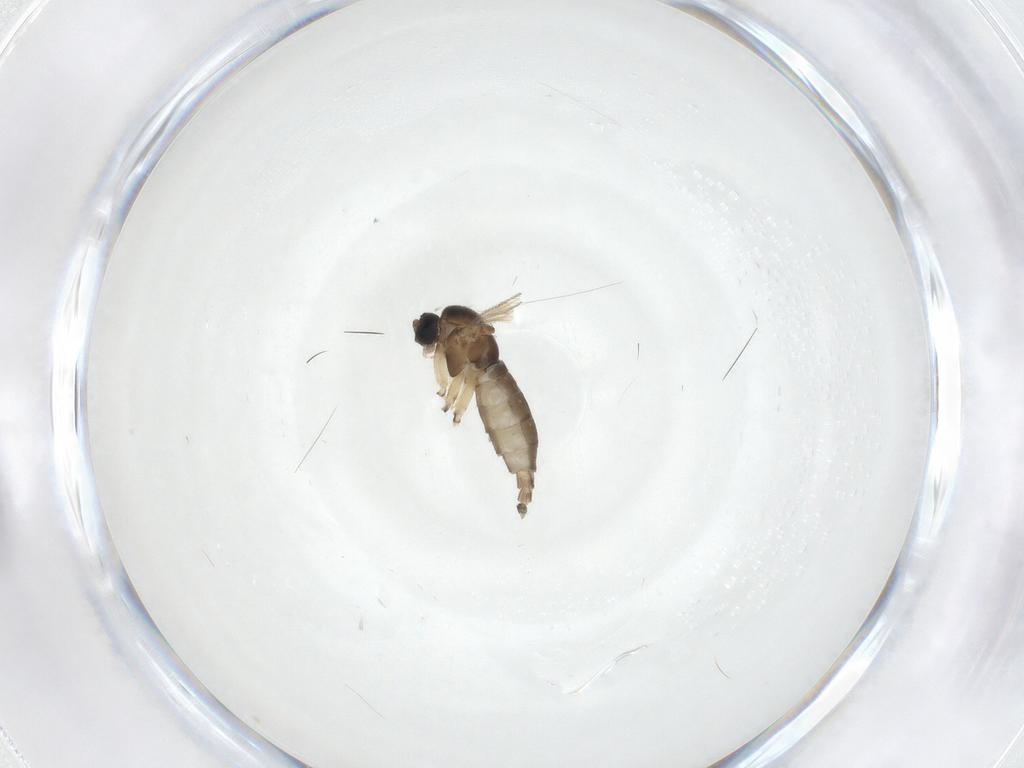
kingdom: Animalia
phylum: Arthropoda
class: Insecta
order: Diptera
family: Sciaridae
